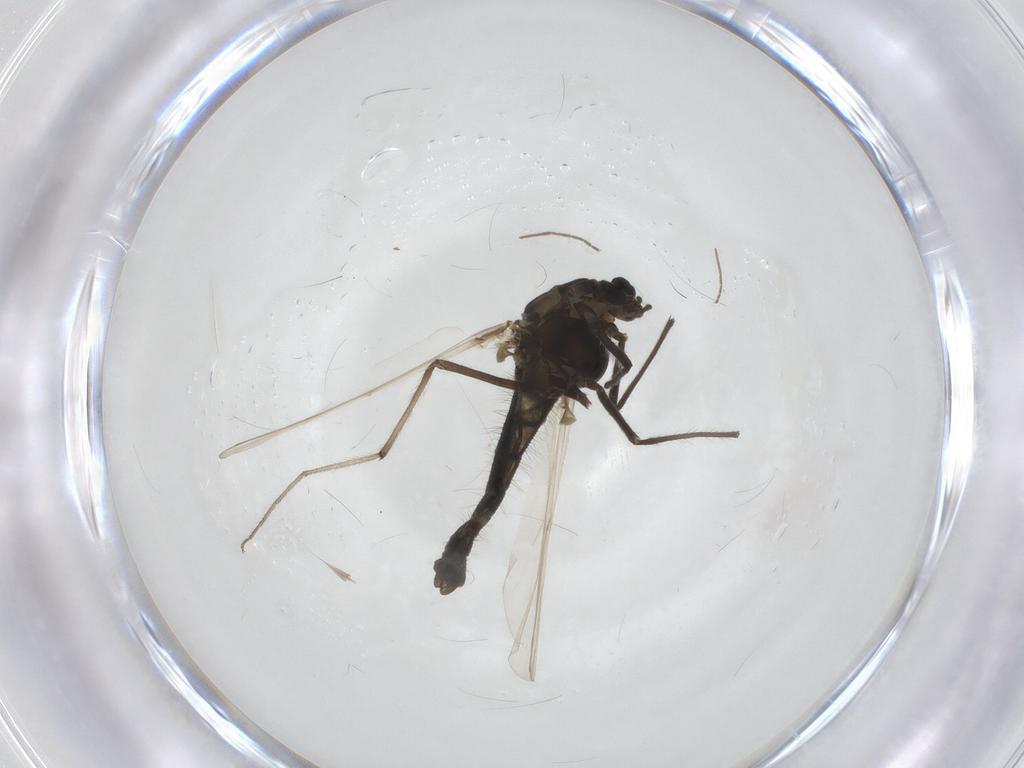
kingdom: Animalia
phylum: Arthropoda
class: Insecta
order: Diptera
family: Chironomidae
